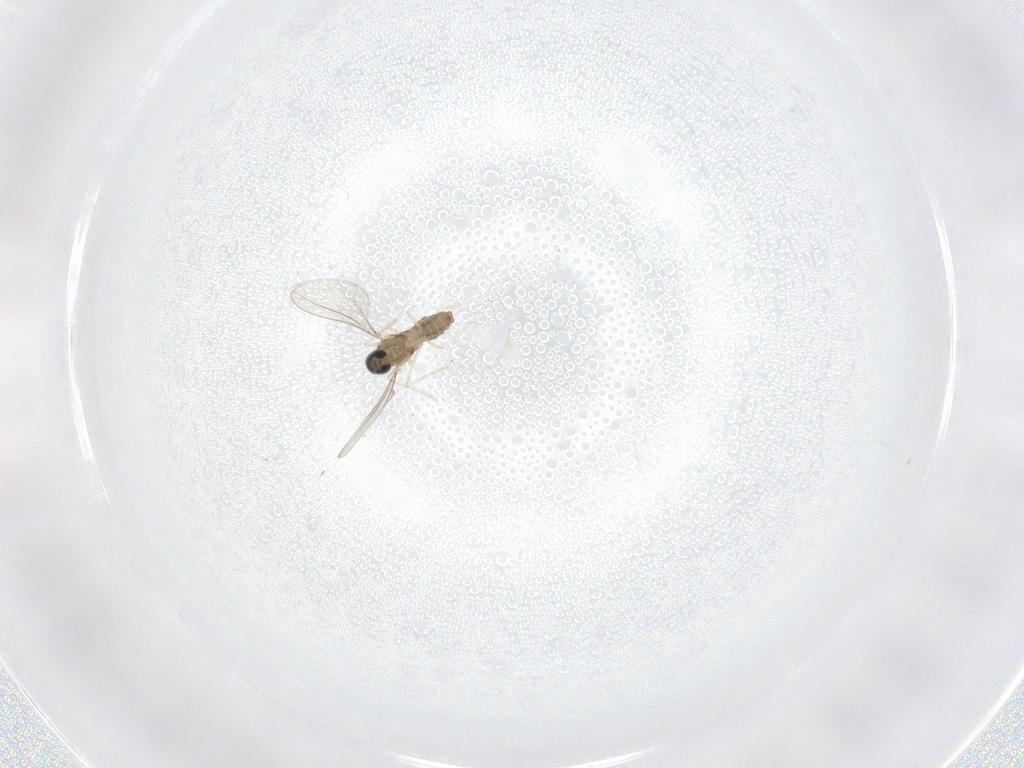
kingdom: Animalia
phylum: Arthropoda
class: Insecta
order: Diptera
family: Cecidomyiidae
